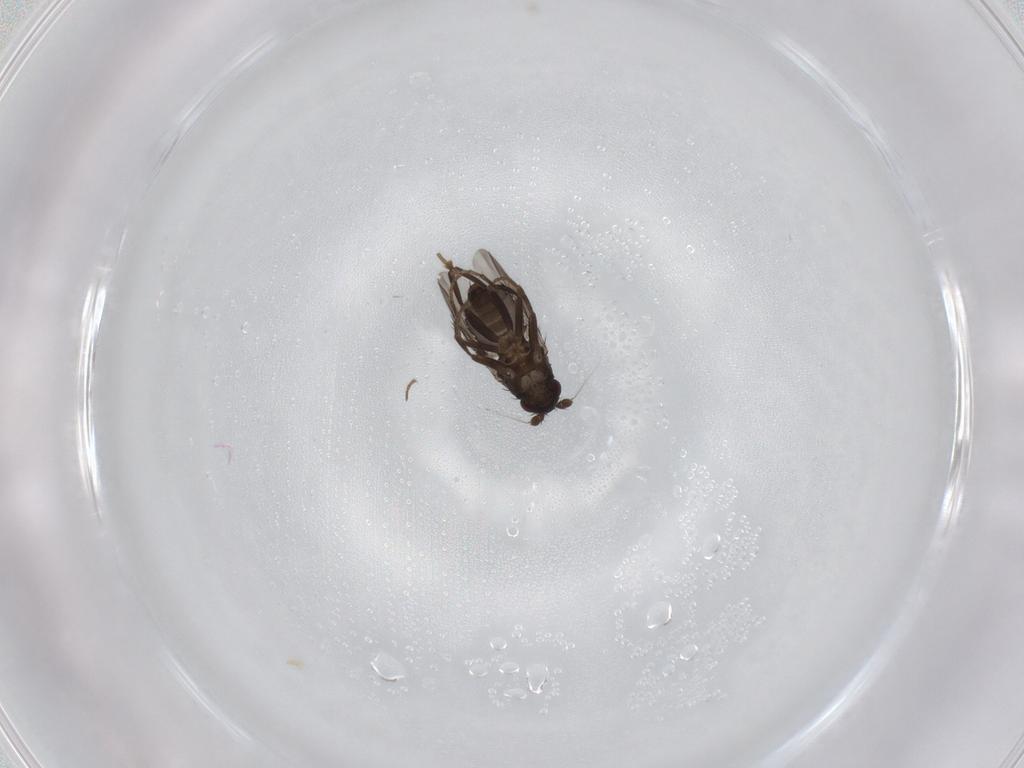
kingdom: Animalia
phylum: Arthropoda
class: Insecta
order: Diptera
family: Sphaeroceridae
